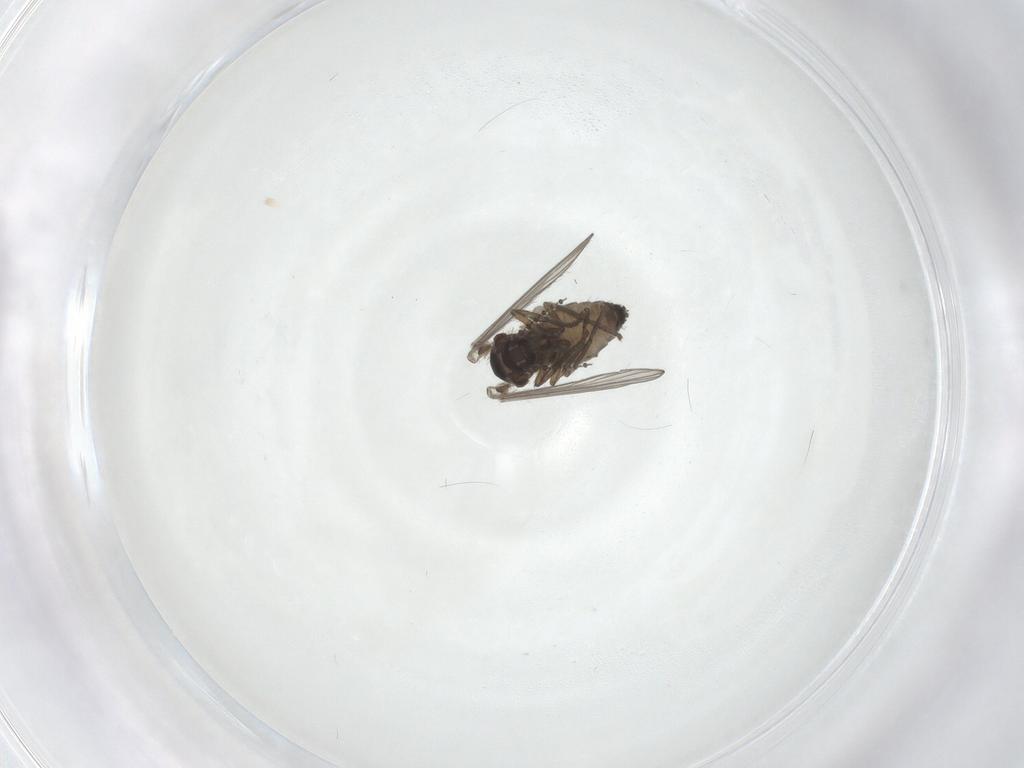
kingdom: Animalia
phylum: Arthropoda
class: Insecta
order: Diptera
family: Psychodidae
